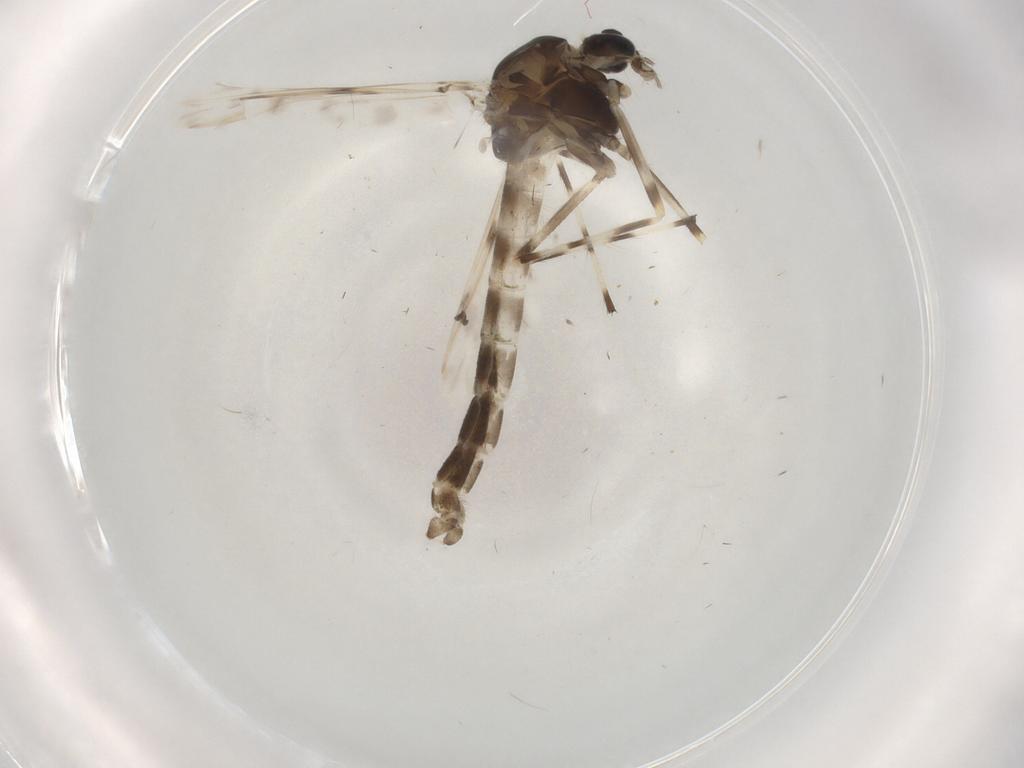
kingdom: Animalia
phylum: Arthropoda
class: Insecta
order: Diptera
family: Chironomidae
